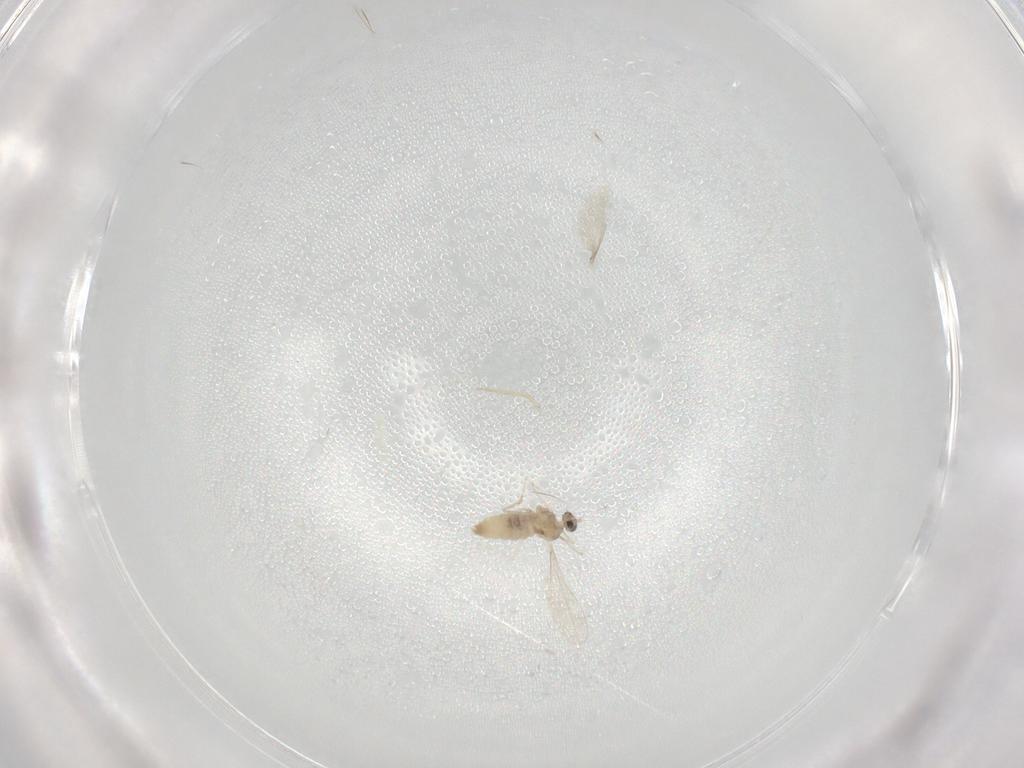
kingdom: Animalia
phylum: Arthropoda
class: Insecta
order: Diptera
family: Cecidomyiidae
